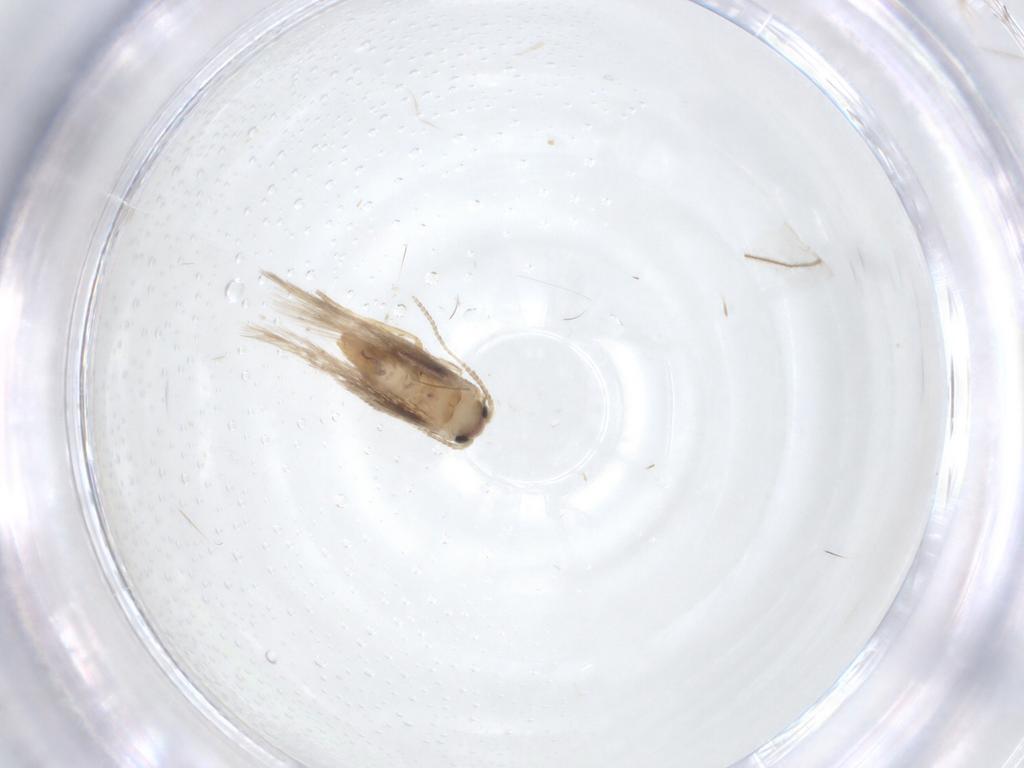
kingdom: Animalia
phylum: Arthropoda
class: Insecta
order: Lepidoptera
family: Nepticulidae
